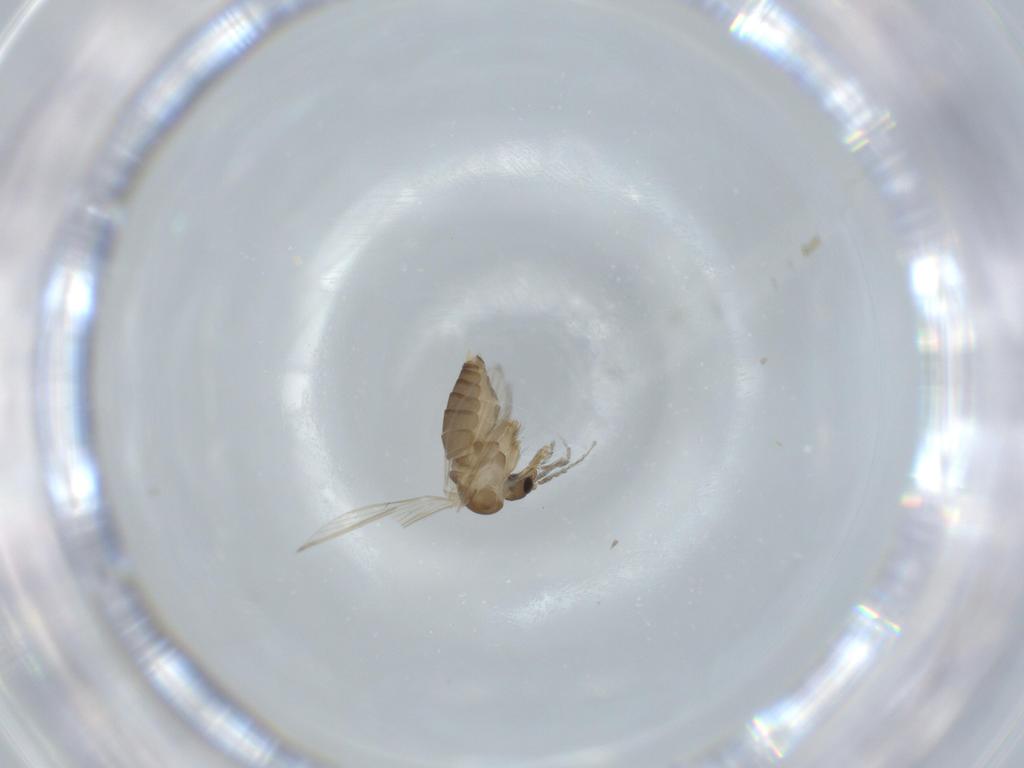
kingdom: Animalia
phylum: Arthropoda
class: Insecta
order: Diptera
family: Psychodidae
